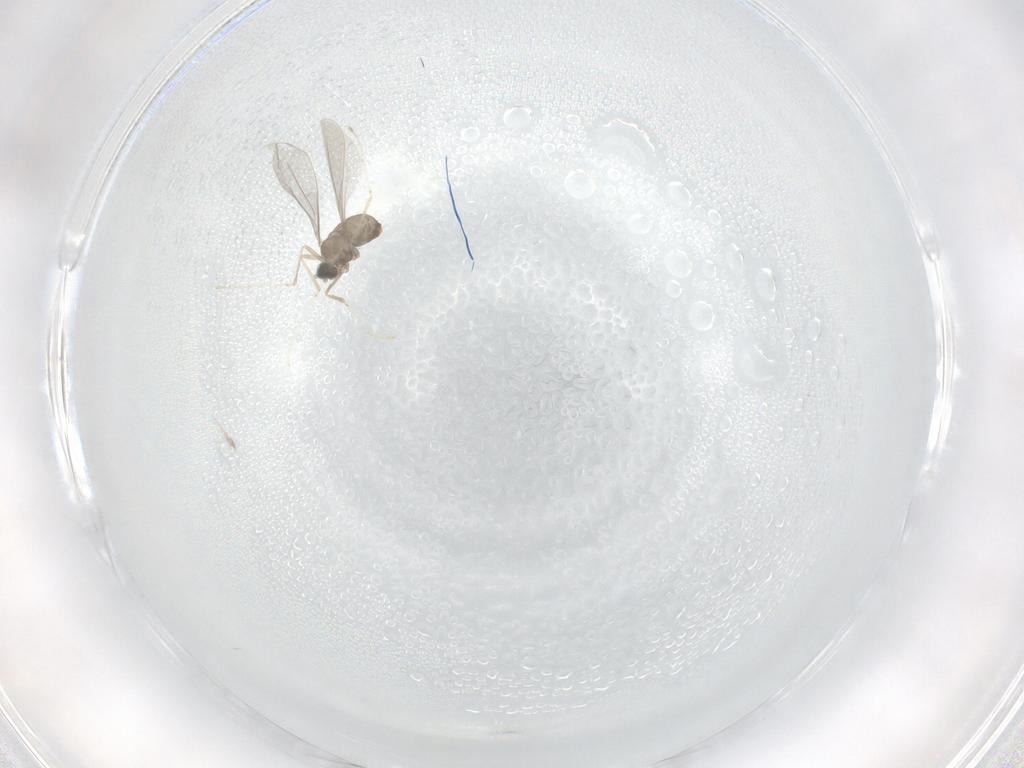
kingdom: Animalia
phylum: Arthropoda
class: Insecta
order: Diptera
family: Cecidomyiidae
